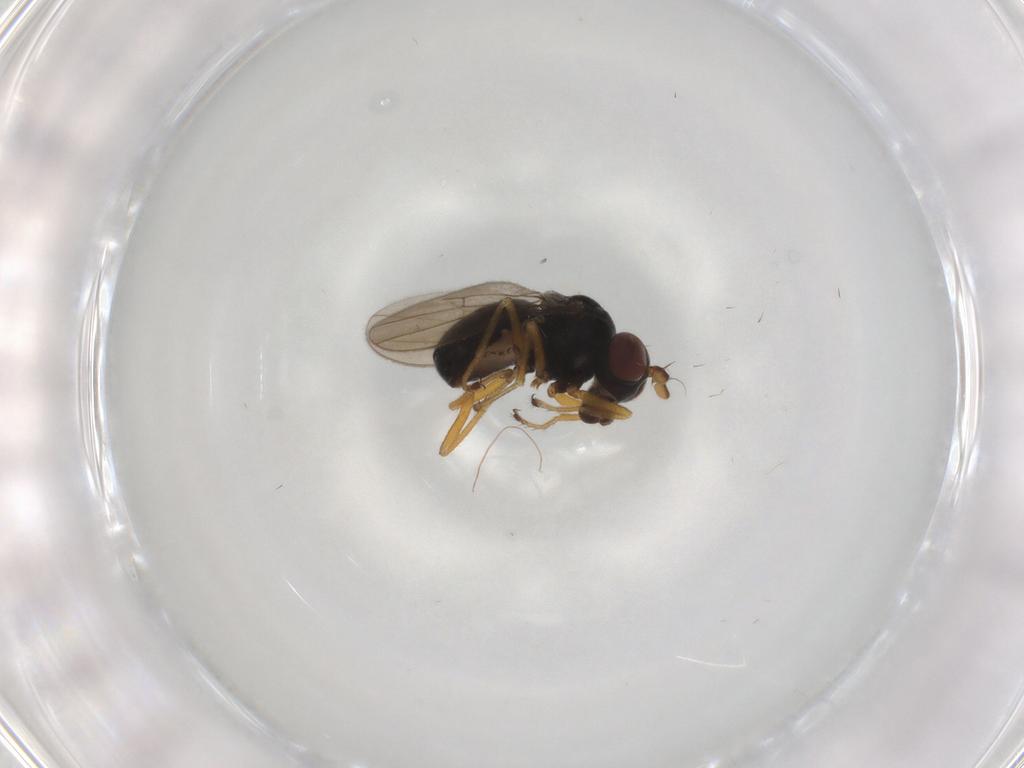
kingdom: Animalia
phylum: Arthropoda
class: Insecta
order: Diptera
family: Ephydridae
